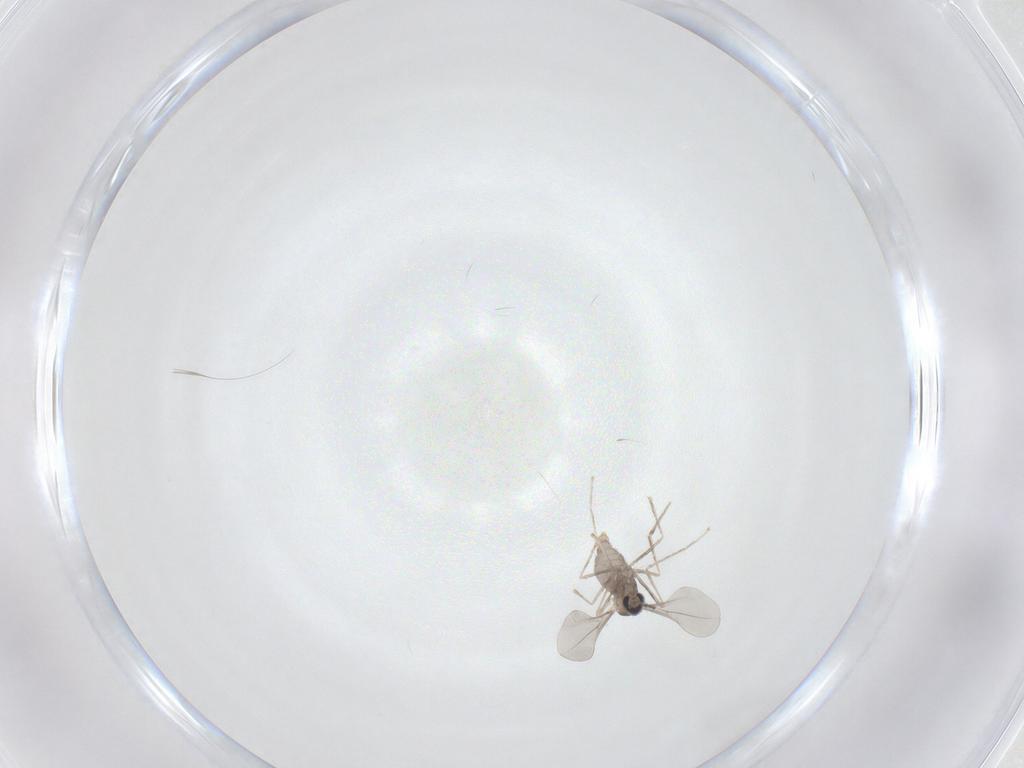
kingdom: Animalia
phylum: Arthropoda
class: Insecta
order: Diptera
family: Cecidomyiidae
